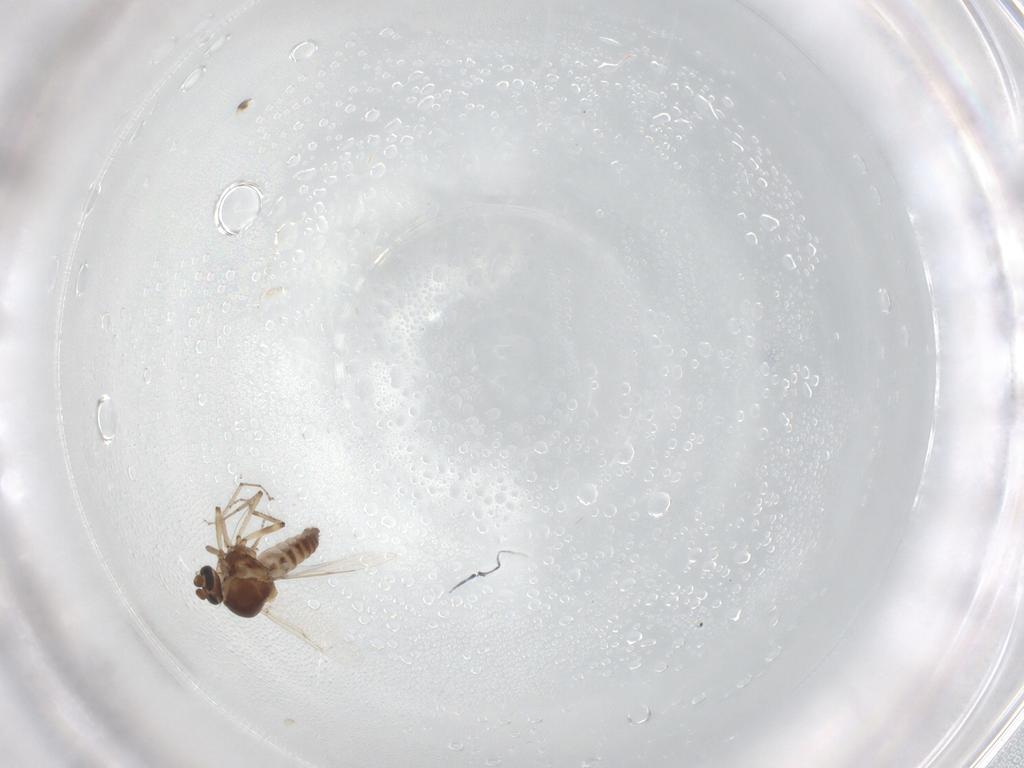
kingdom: Animalia
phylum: Arthropoda
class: Insecta
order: Diptera
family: Ceratopogonidae
